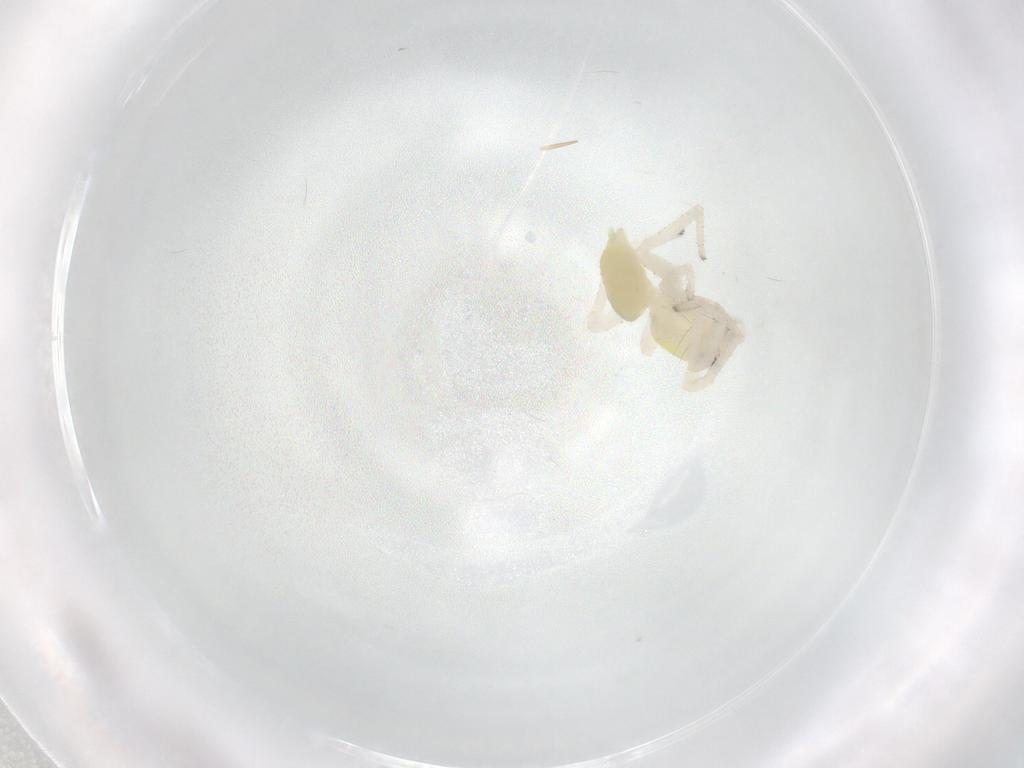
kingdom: Animalia
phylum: Arthropoda
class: Arachnida
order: Araneae
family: Anyphaenidae
